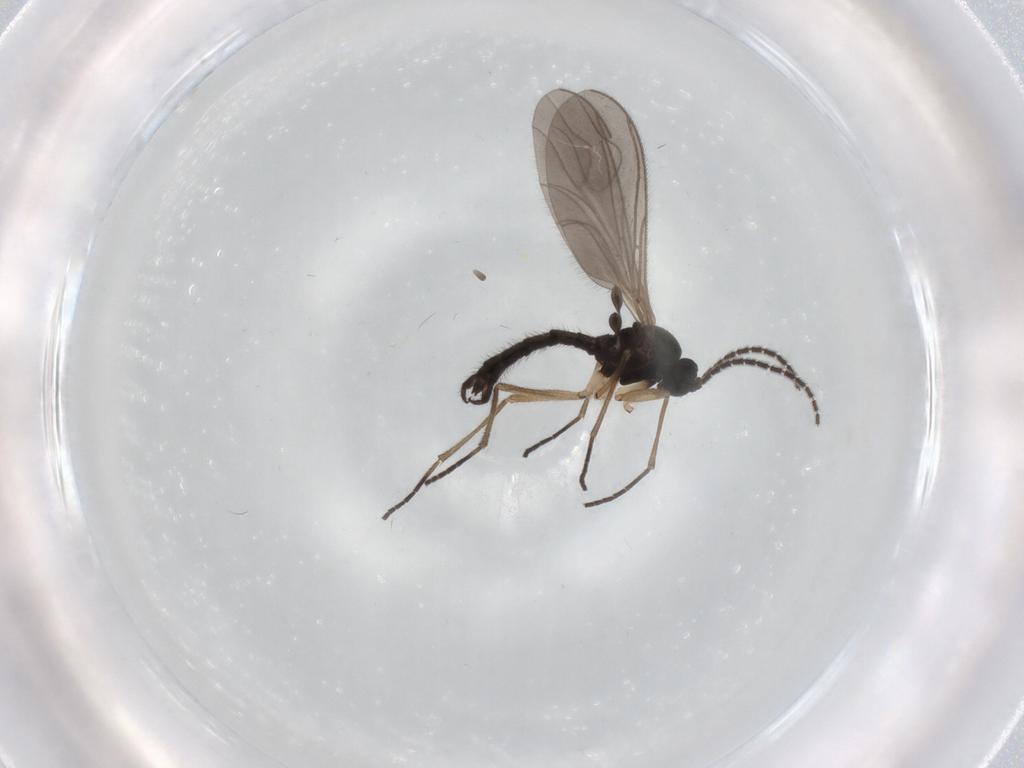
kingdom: Animalia
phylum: Arthropoda
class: Insecta
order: Diptera
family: Sciaridae
